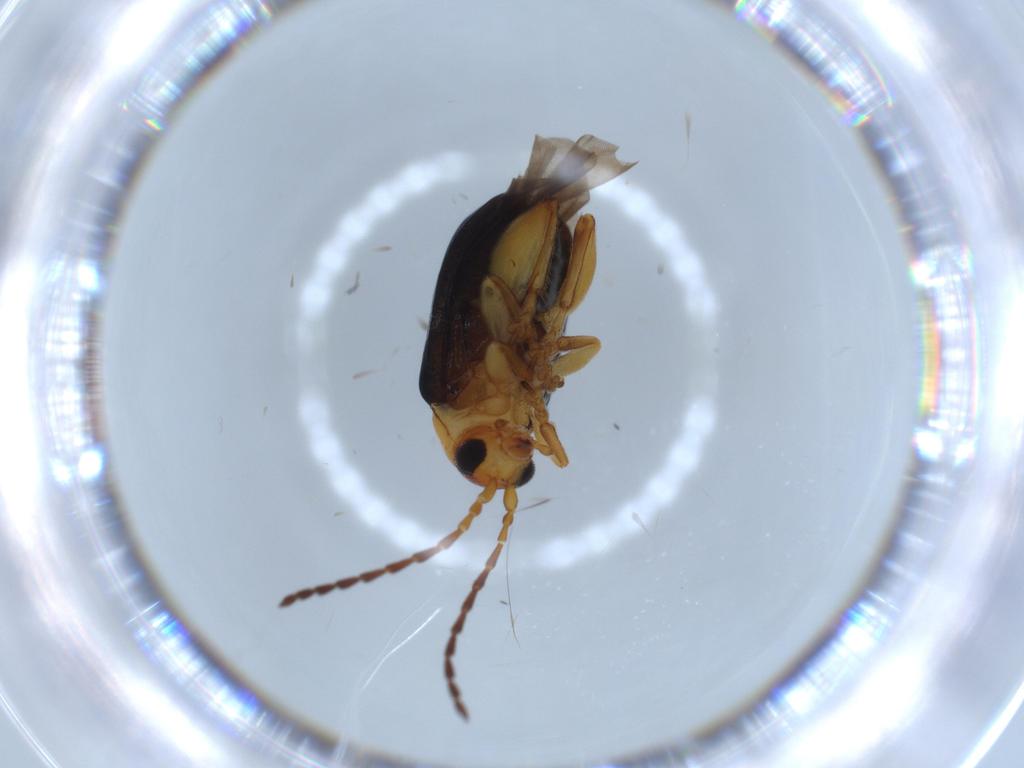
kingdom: Animalia
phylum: Arthropoda
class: Insecta
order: Coleoptera
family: Chrysomelidae
